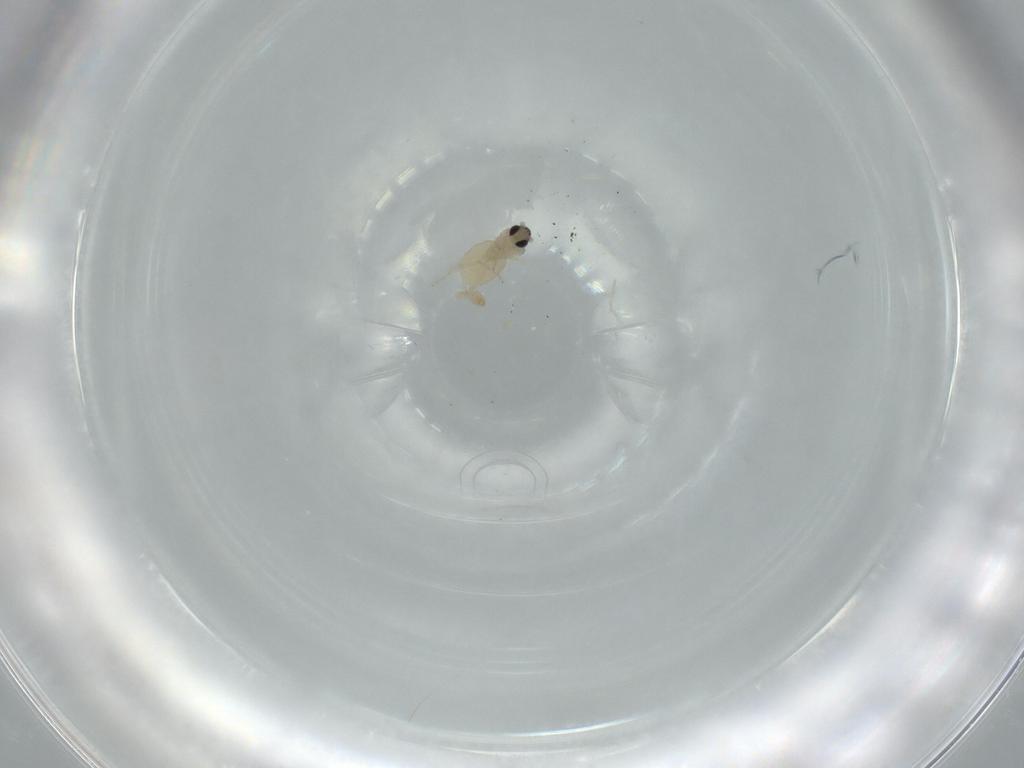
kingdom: Animalia
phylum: Arthropoda
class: Insecta
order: Diptera
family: Cecidomyiidae
